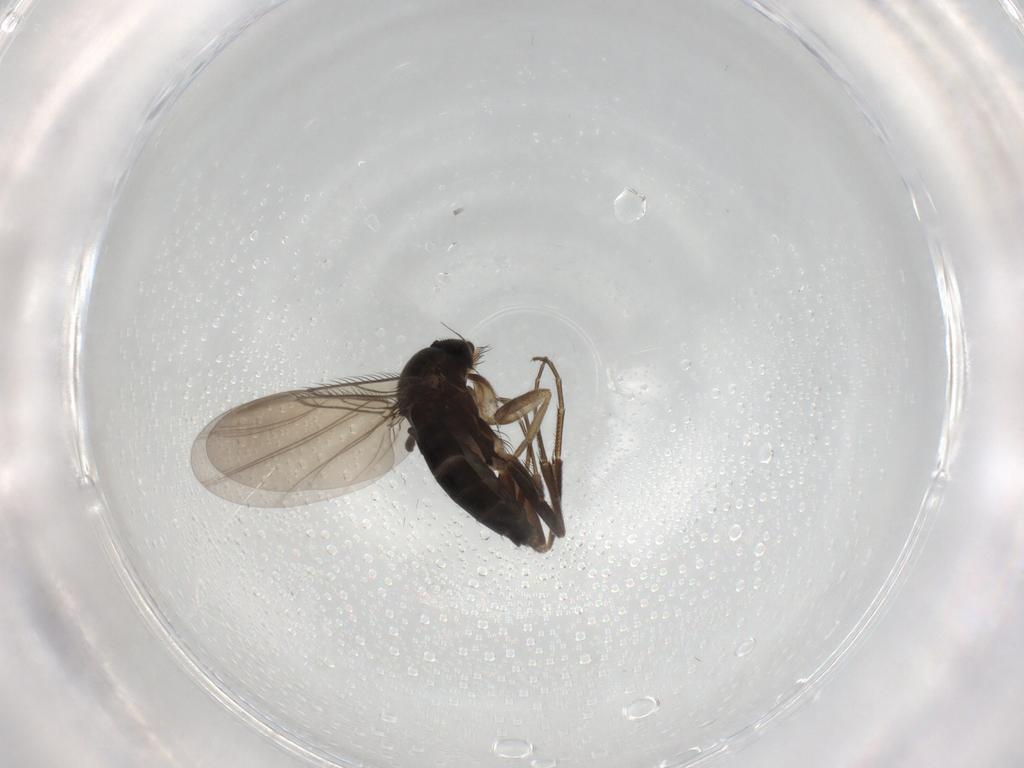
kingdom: Animalia
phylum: Arthropoda
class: Insecta
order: Diptera
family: Phoridae
